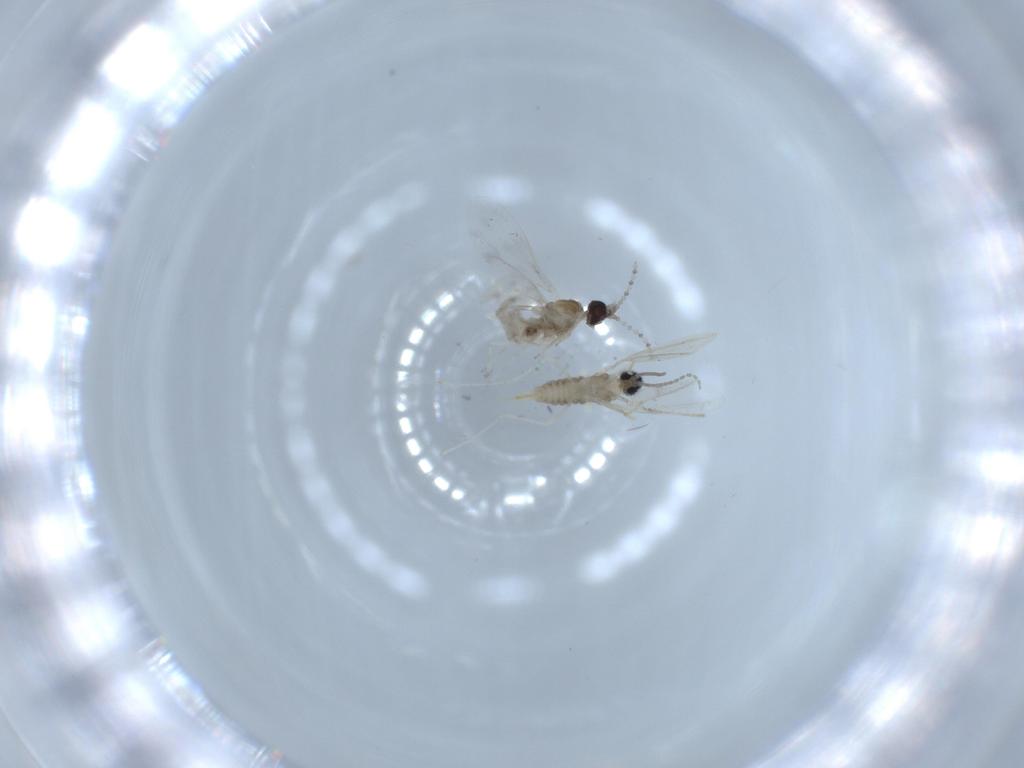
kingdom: Animalia
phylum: Arthropoda
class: Insecta
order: Diptera
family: Cecidomyiidae
